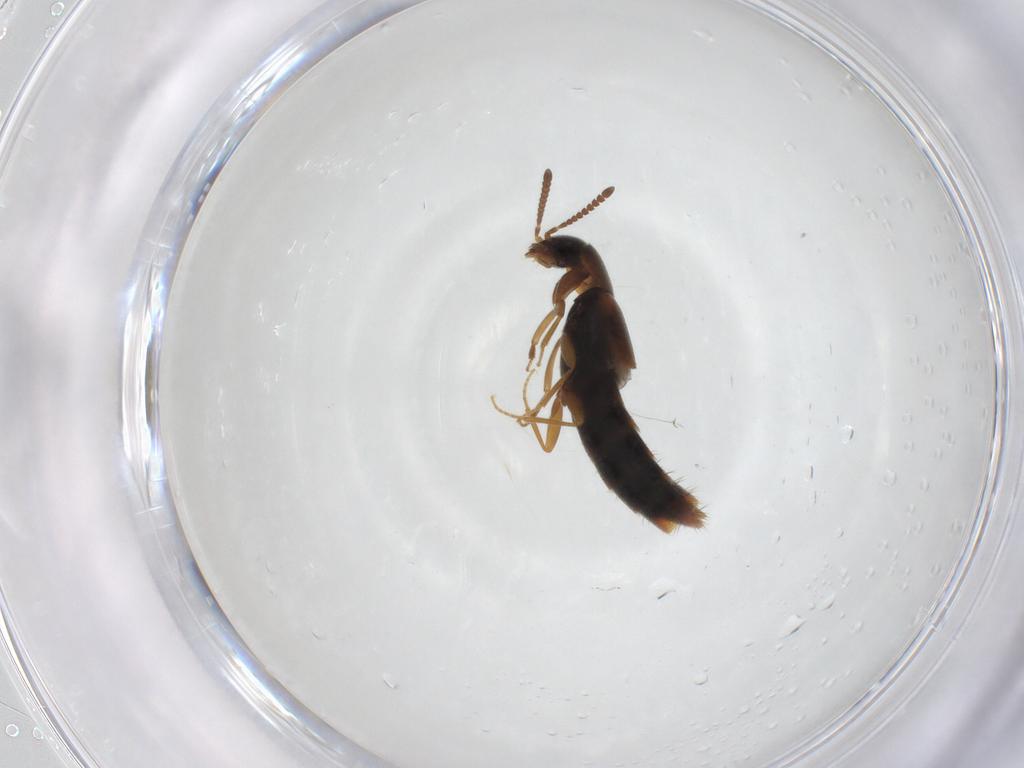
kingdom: Animalia
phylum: Arthropoda
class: Insecta
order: Coleoptera
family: Staphylinidae
